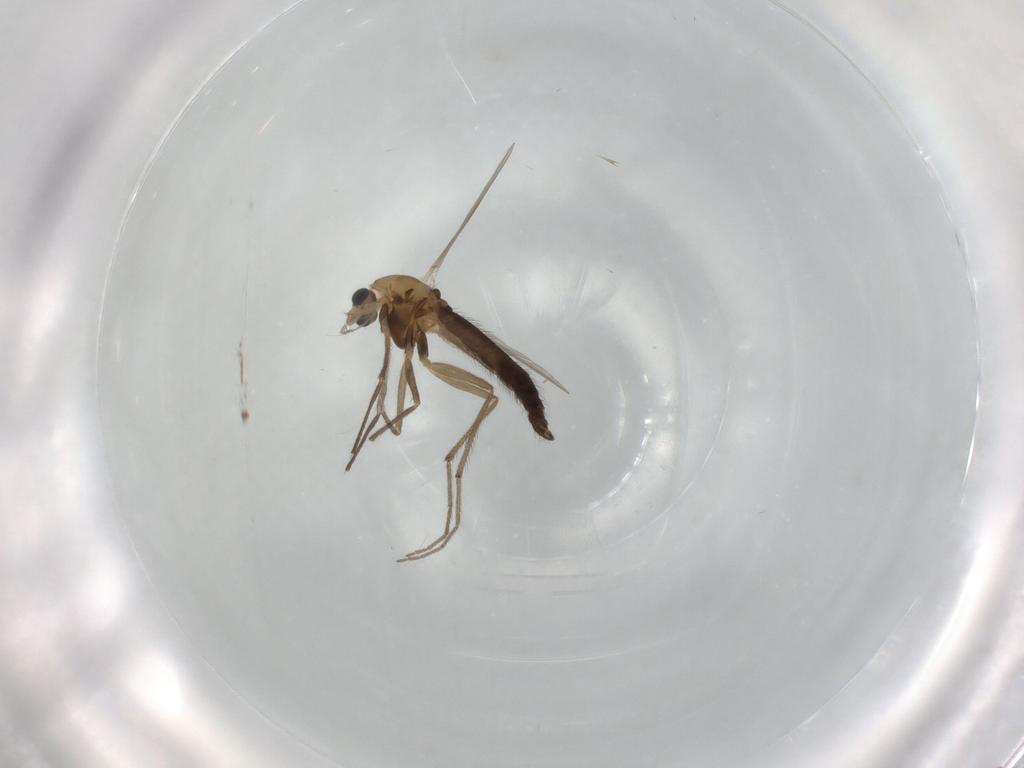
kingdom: Animalia
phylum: Arthropoda
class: Insecta
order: Diptera
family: Chironomidae
